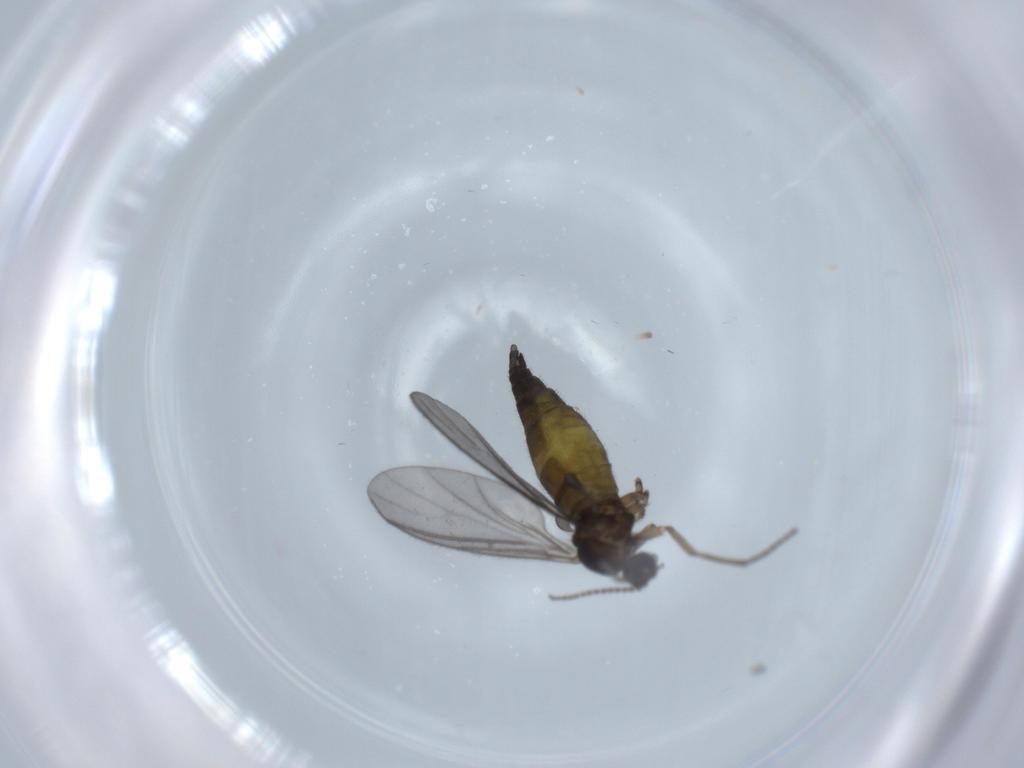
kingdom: Animalia
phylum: Arthropoda
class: Insecta
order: Diptera
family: Sciaridae
